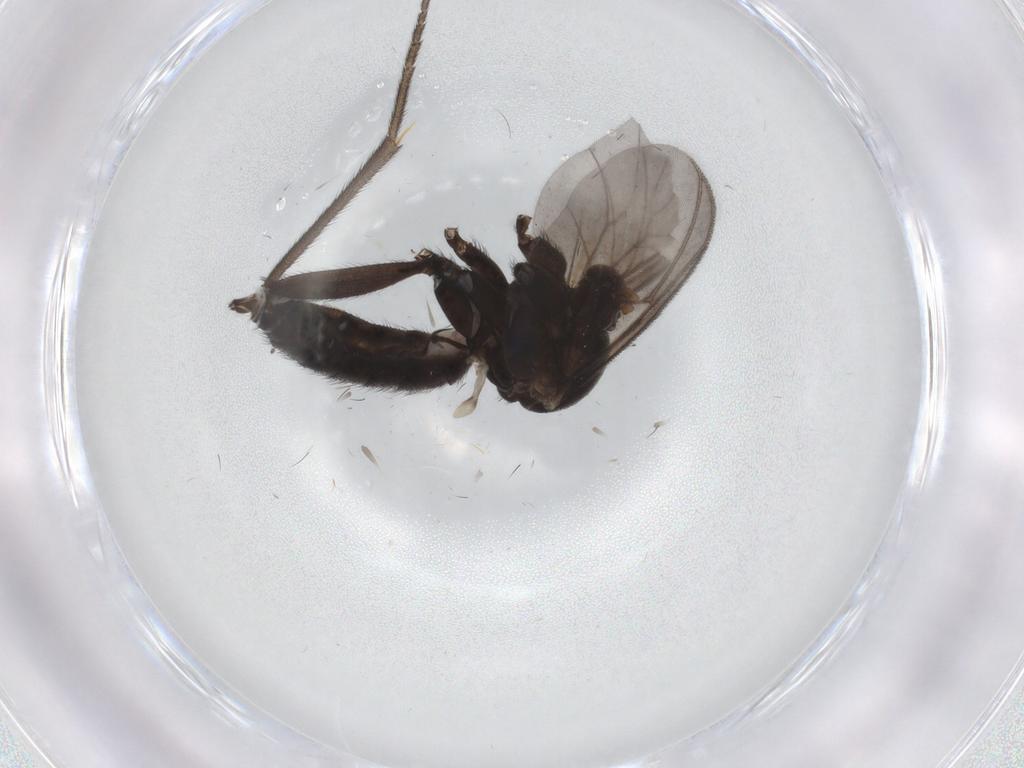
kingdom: Animalia
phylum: Arthropoda
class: Insecta
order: Diptera
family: Mycetophilidae
